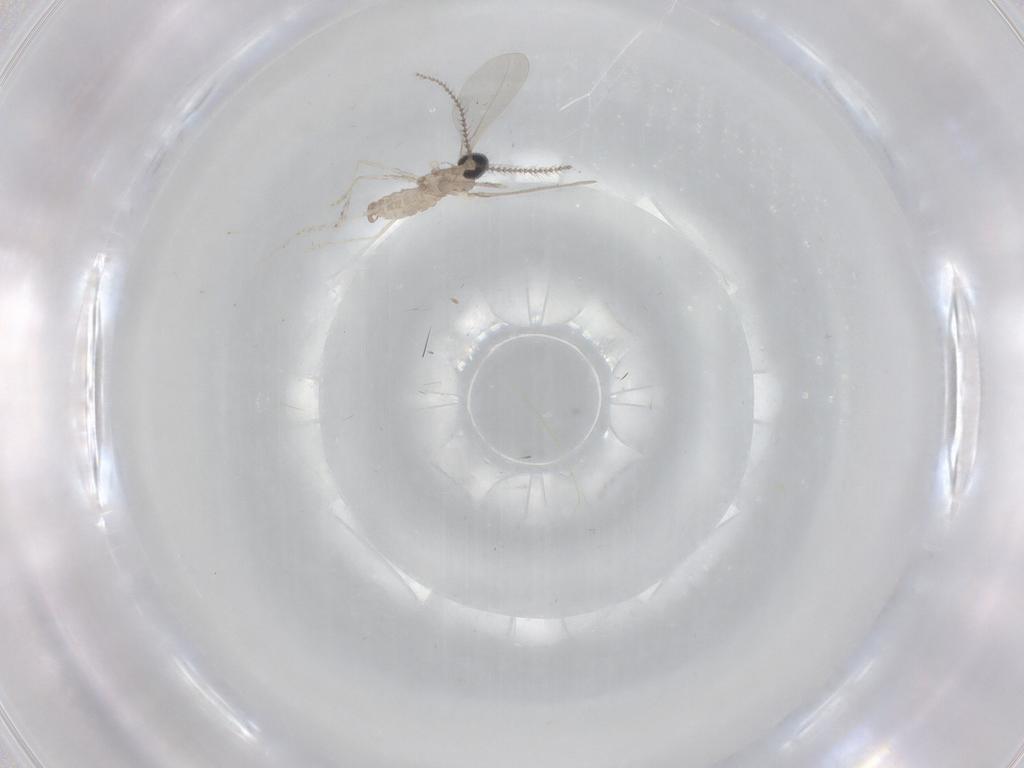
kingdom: Animalia
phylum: Arthropoda
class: Insecta
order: Diptera
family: Cecidomyiidae
